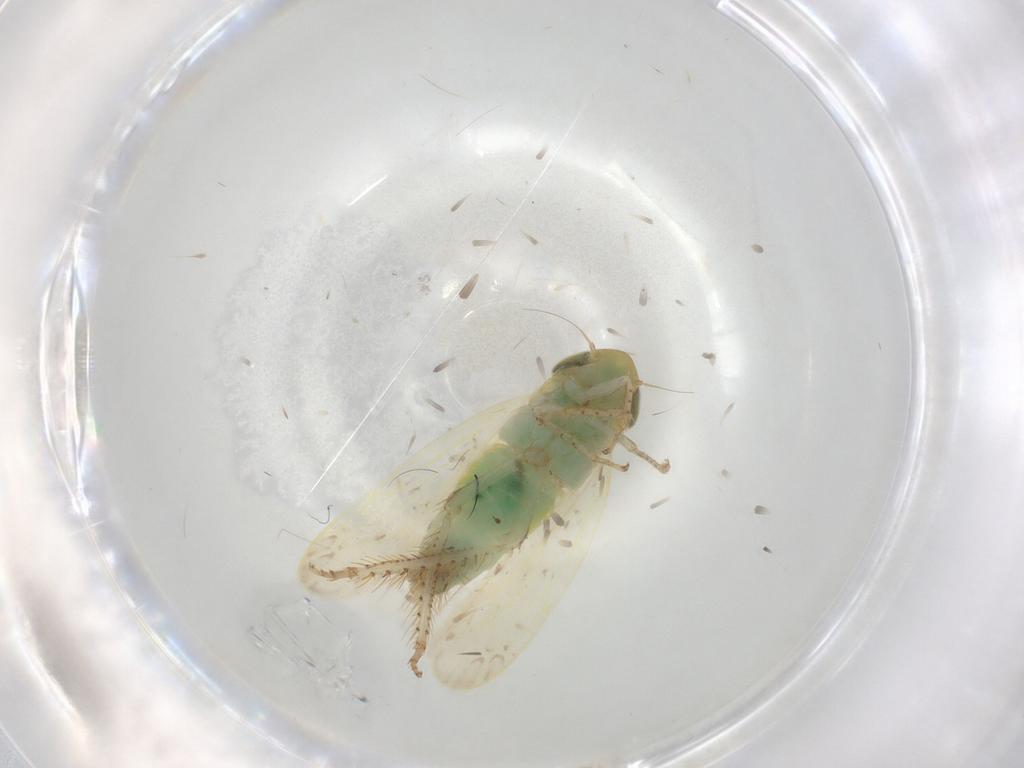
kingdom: Animalia
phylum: Arthropoda
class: Insecta
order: Hemiptera
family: Cicadellidae
